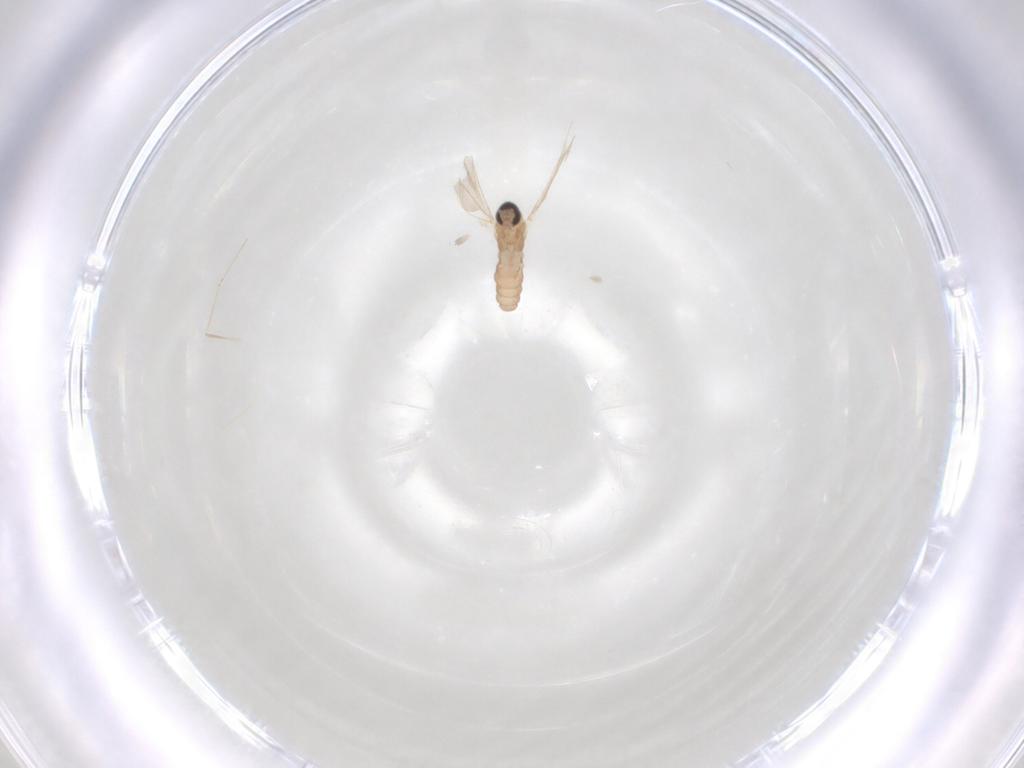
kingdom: Animalia
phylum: Arthropoda
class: Insecta
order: Diptera
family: Cecidomyiidae
